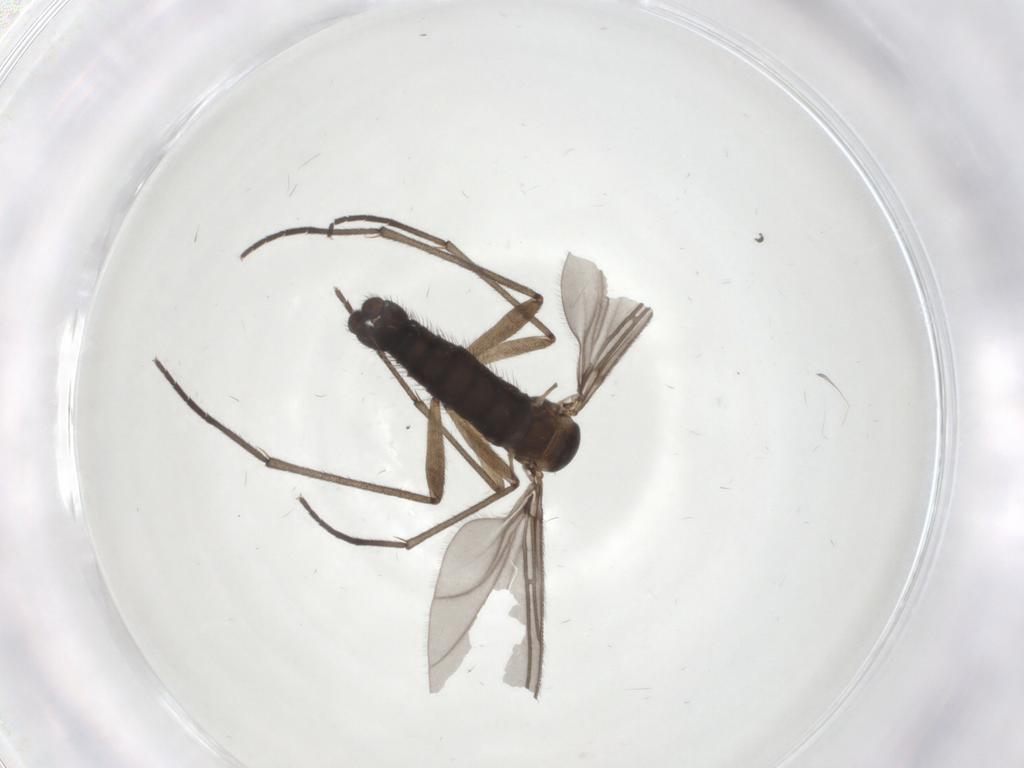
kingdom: Animalia
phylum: Arthropoda
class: Insecta
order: Diptera
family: Sciaridae
